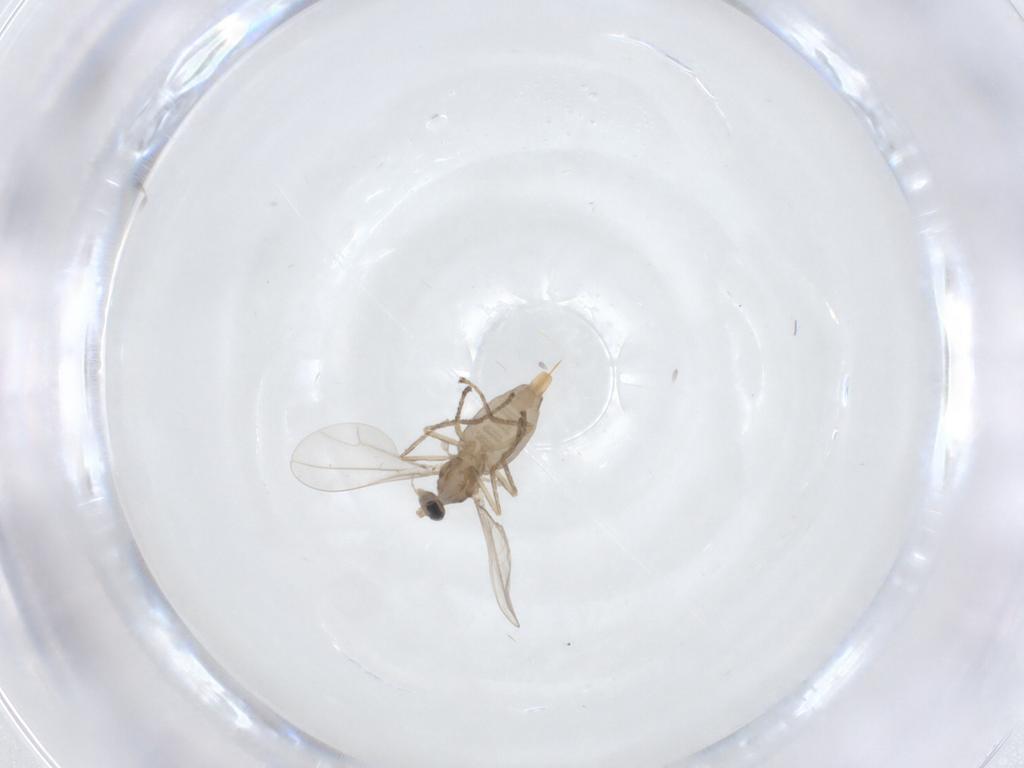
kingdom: Animalia
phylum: Arthropoda
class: Insecta
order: Diptera
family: Cecidomyiidae
